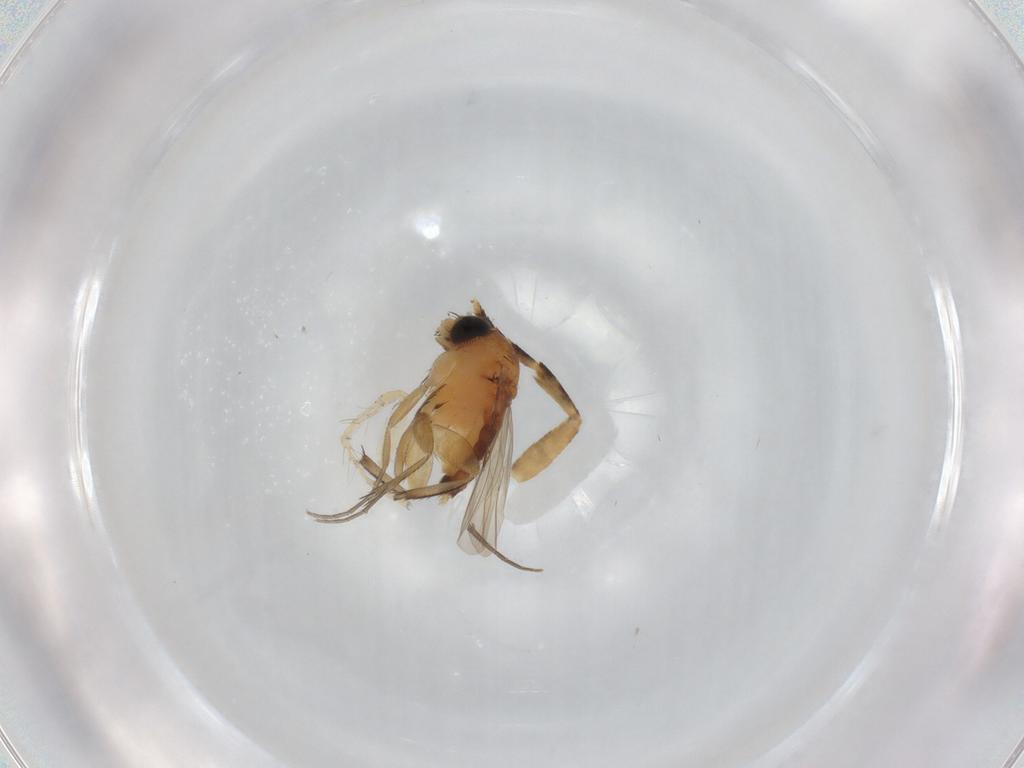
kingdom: Animalia
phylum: Arthropoda
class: Insecta
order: Diptera
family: Phoridae
